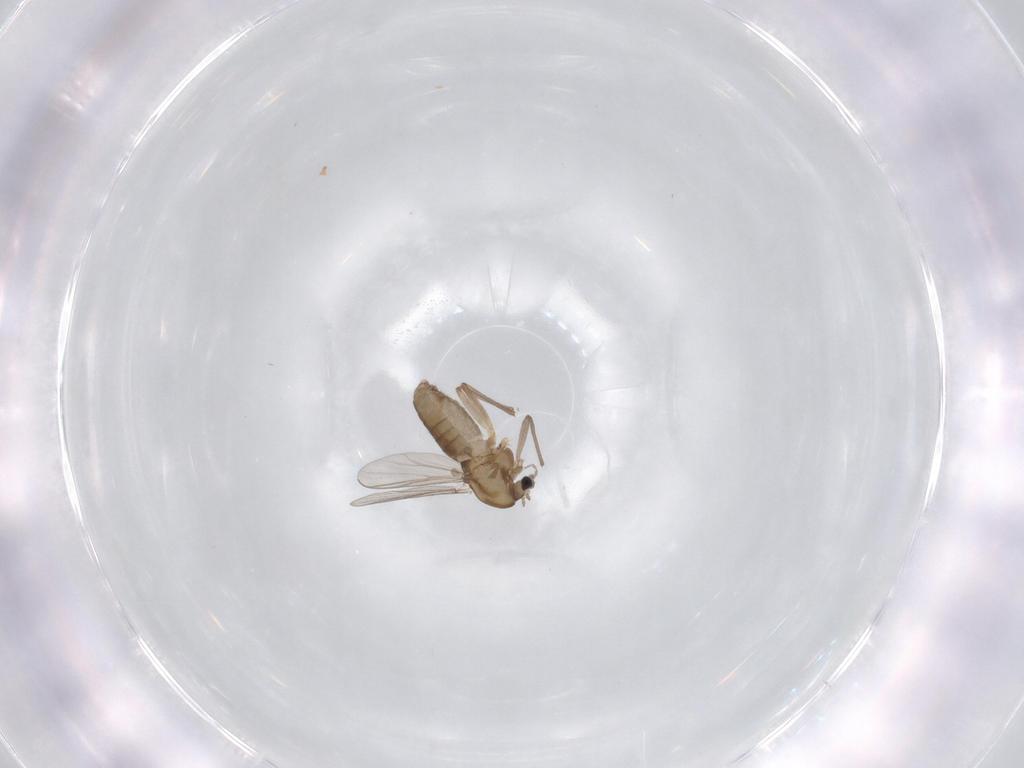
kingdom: Animalia
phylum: Arthropoda
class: Insecta
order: Diptera
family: Chironomidae
